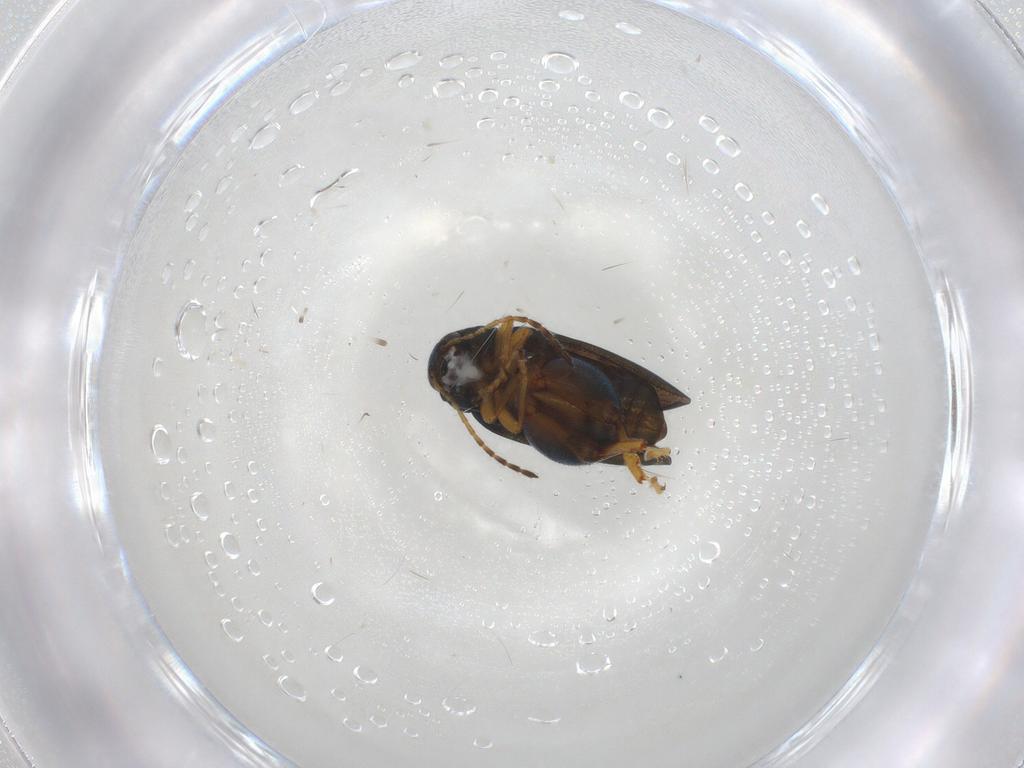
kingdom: Animalia
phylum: Arthropoda
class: Insecta
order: Coleoptera
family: Chrysomelidae
